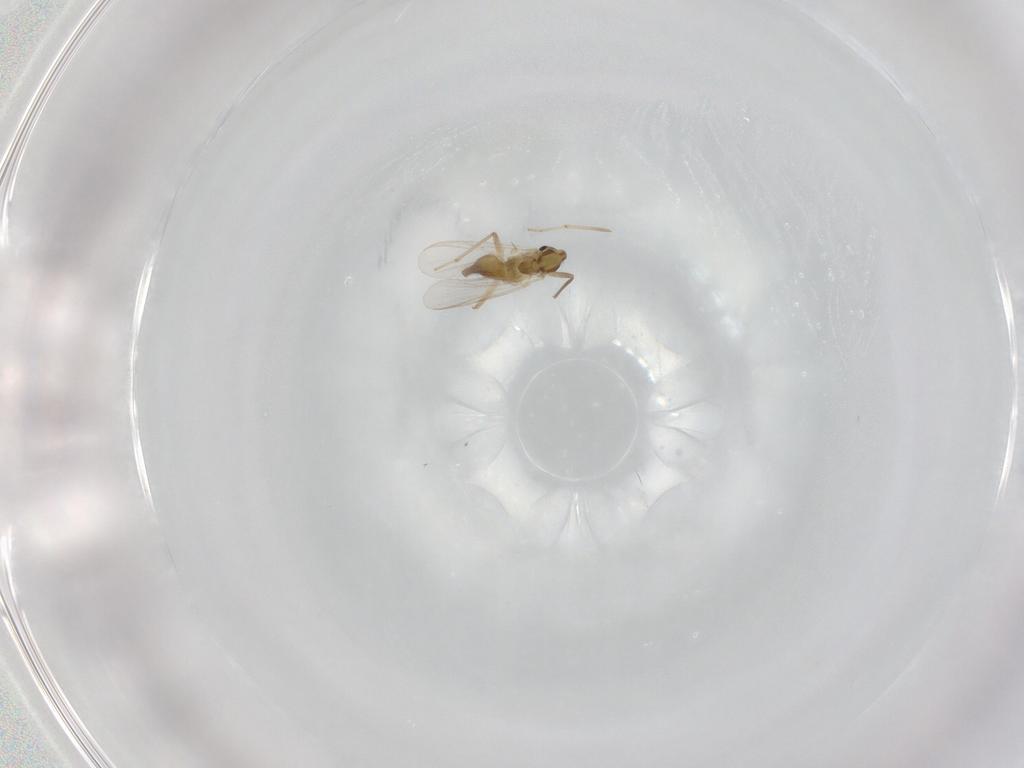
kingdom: Animalia
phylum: Arthropoda
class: Insecta
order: Diptera
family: Chironomidae
